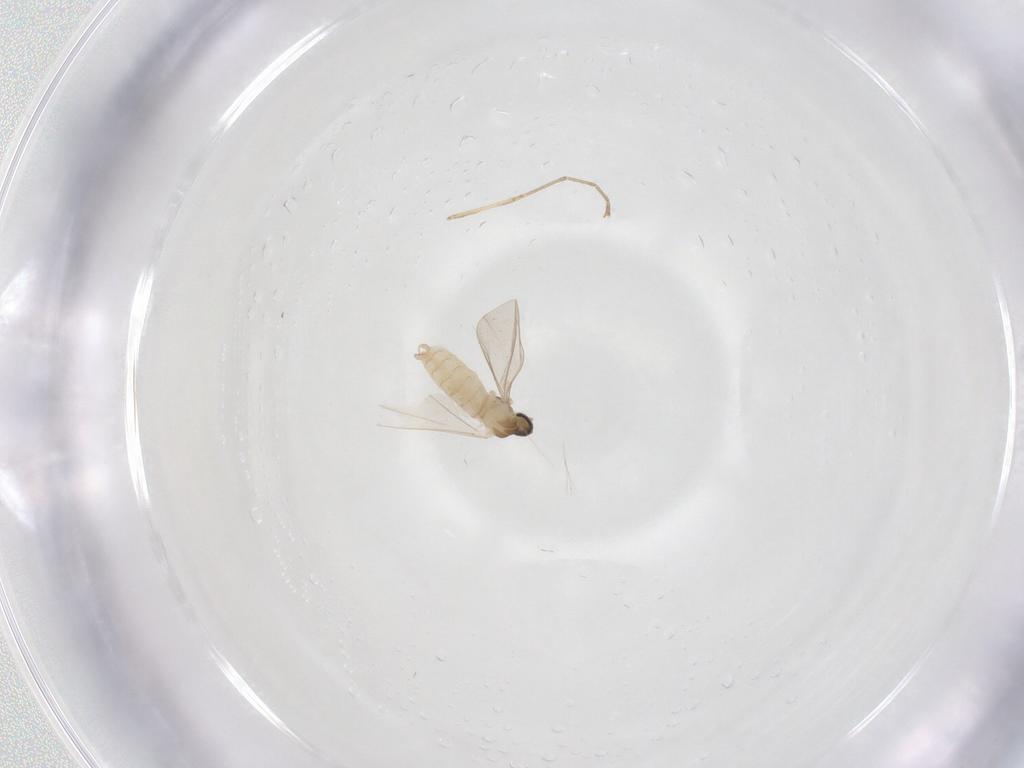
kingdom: Animalia
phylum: Arthropoda
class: Insecta
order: Diptera
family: Cecidomyiidae
